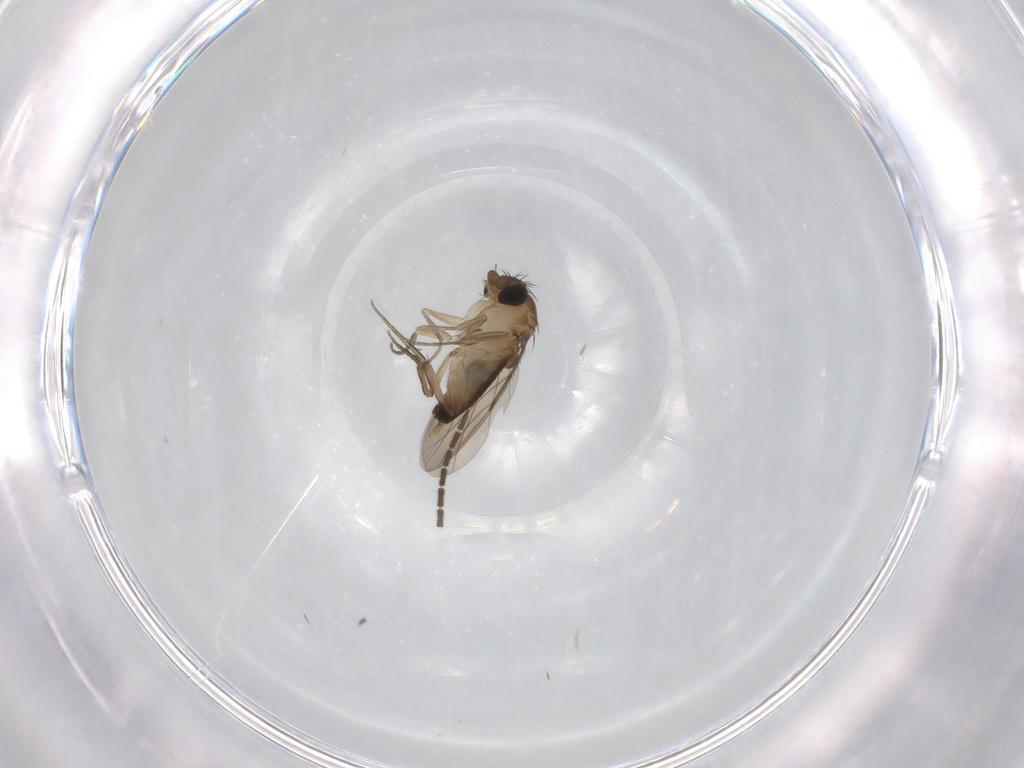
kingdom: Animalia
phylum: Arthropoda
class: Insecta
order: Diptera
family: Phoridae
